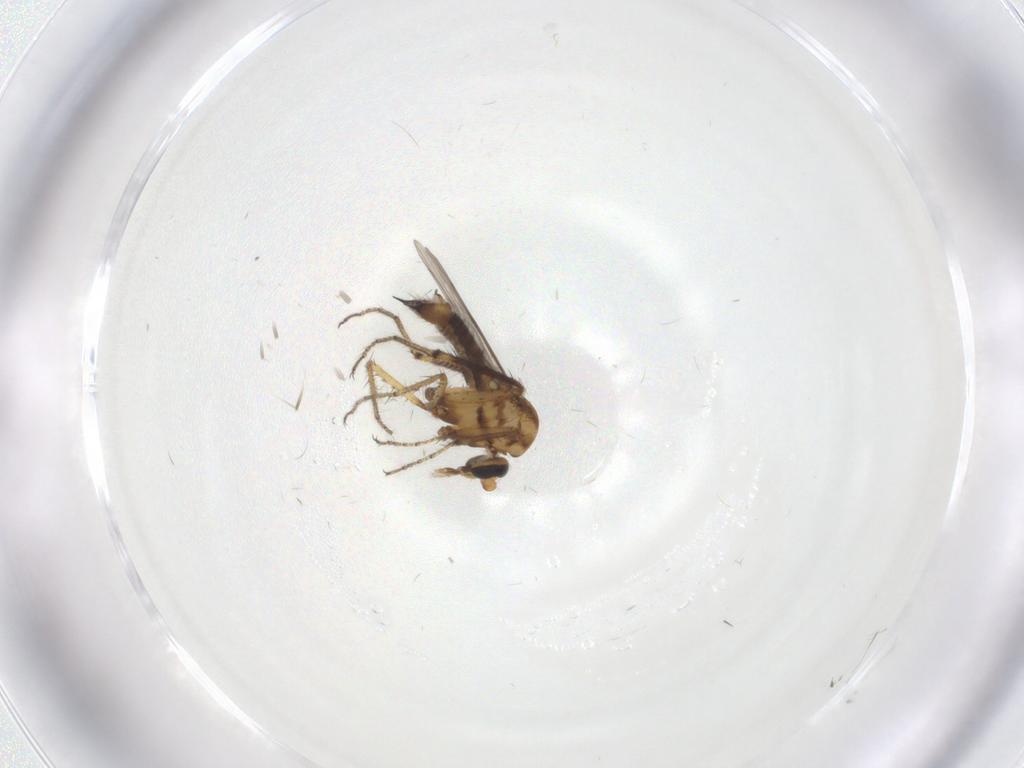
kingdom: Animalia
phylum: Arthropoda
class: Insecta
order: Diptera
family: Ceratopogonidae
